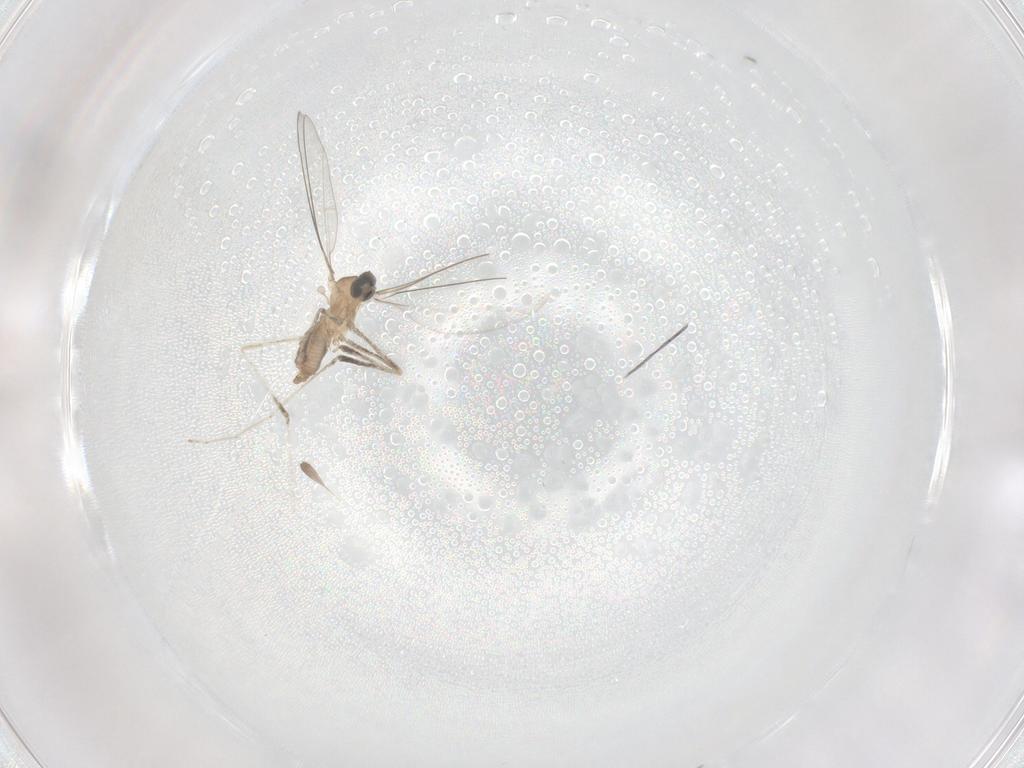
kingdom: Animalia
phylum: Arthropoda
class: Insecta
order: Diptera
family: Cecidomyiidae
